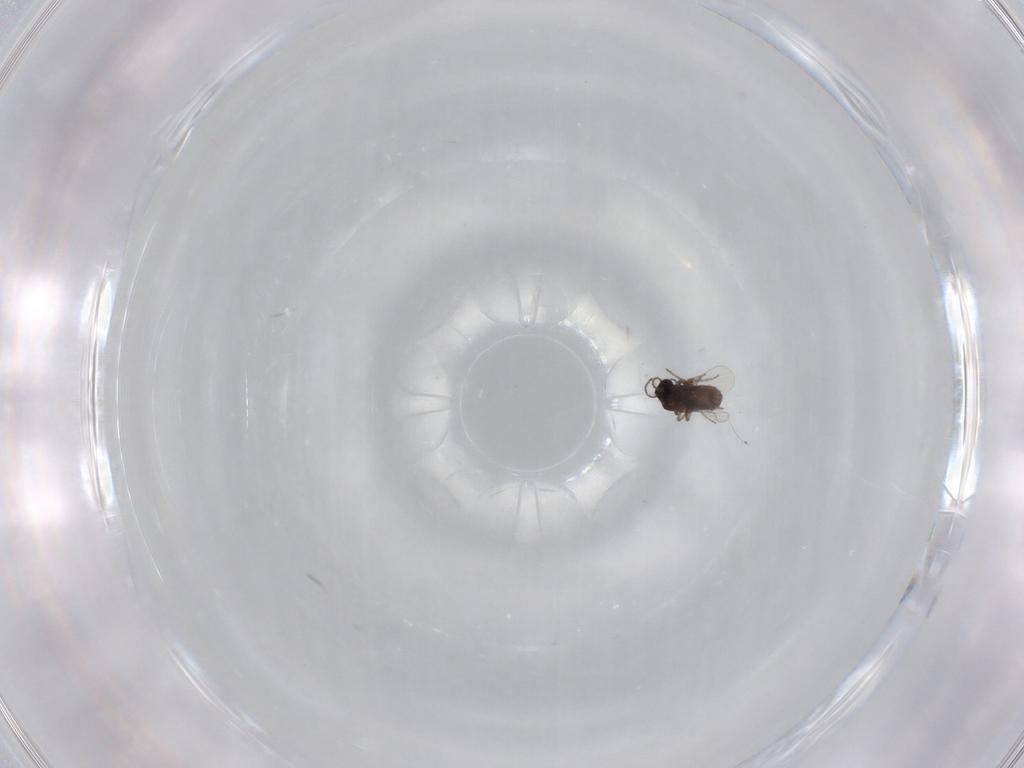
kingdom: Animalia
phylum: Arthropoda
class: Insecta
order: Diptera
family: Ceratopogonidae
